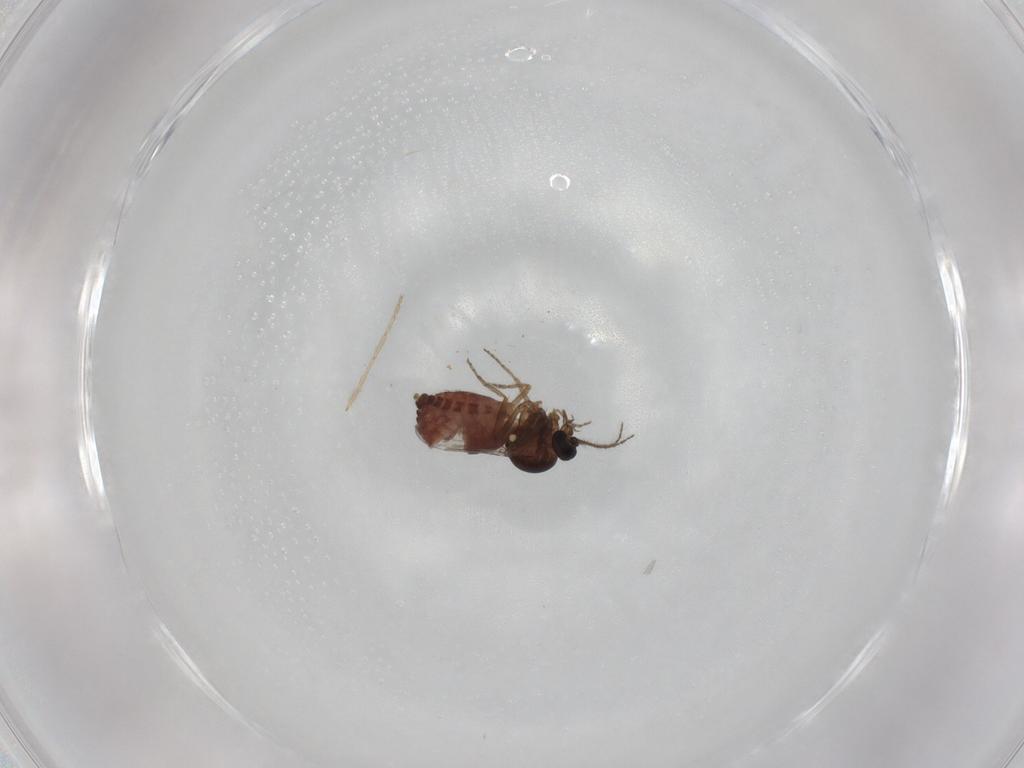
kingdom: Animalia
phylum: Arthropoda
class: Insecta
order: Diptera
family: Chironomidae
